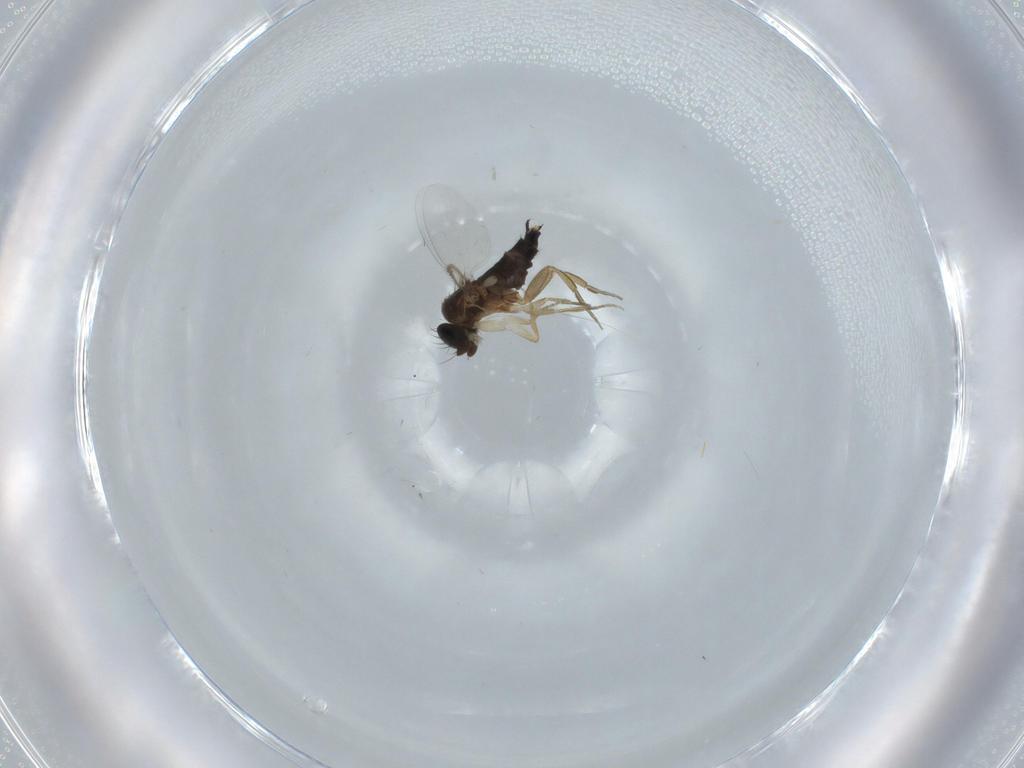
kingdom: Animalia
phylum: Arthropoda
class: Insecta
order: Diptera
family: Phoridae
